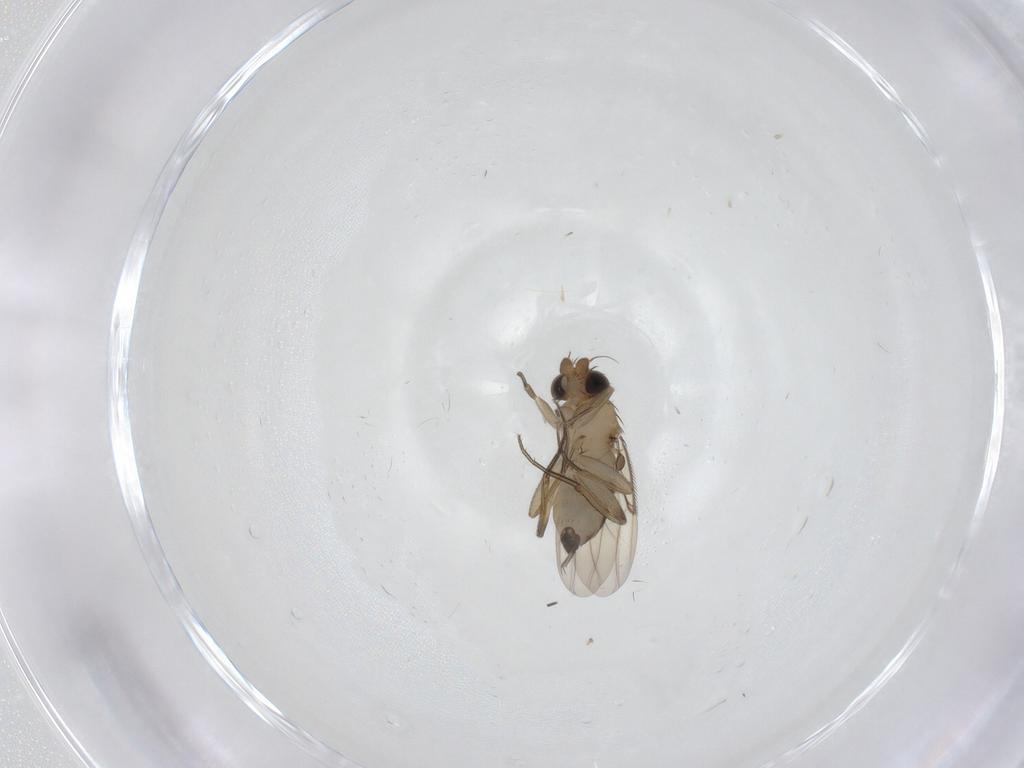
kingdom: Animalia
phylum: Arthropoda
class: Insecta
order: Diptera
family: Phoridae
